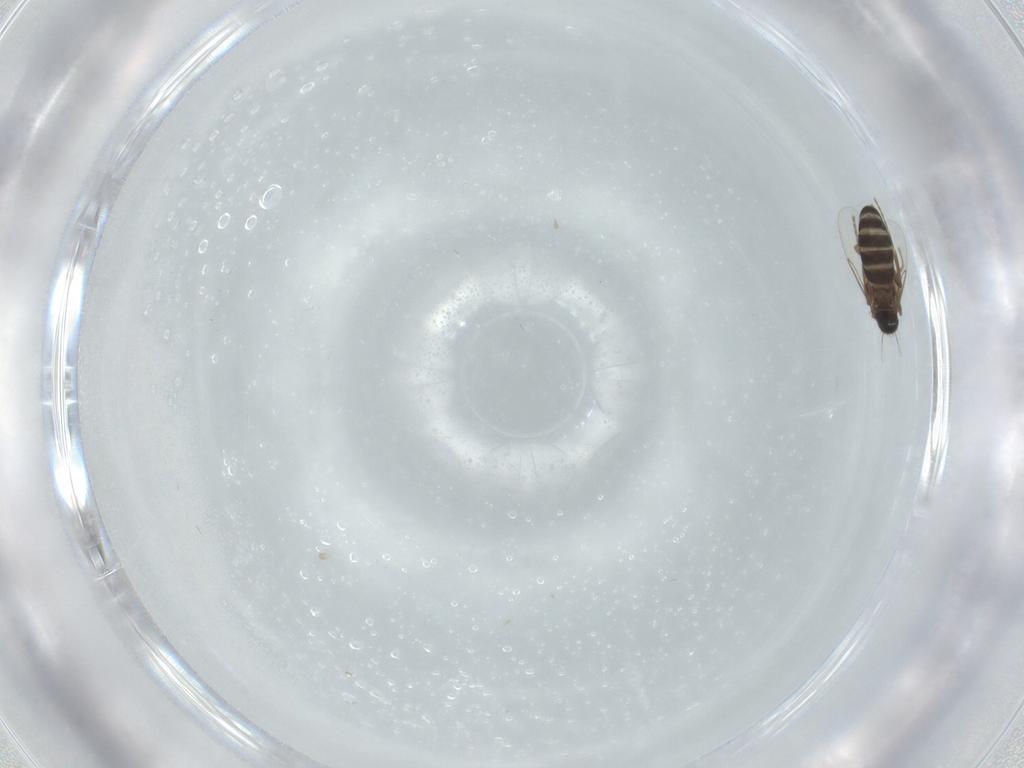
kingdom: Animalia
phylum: Arthropoda
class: Insecta
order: Diptera
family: Phoridae
